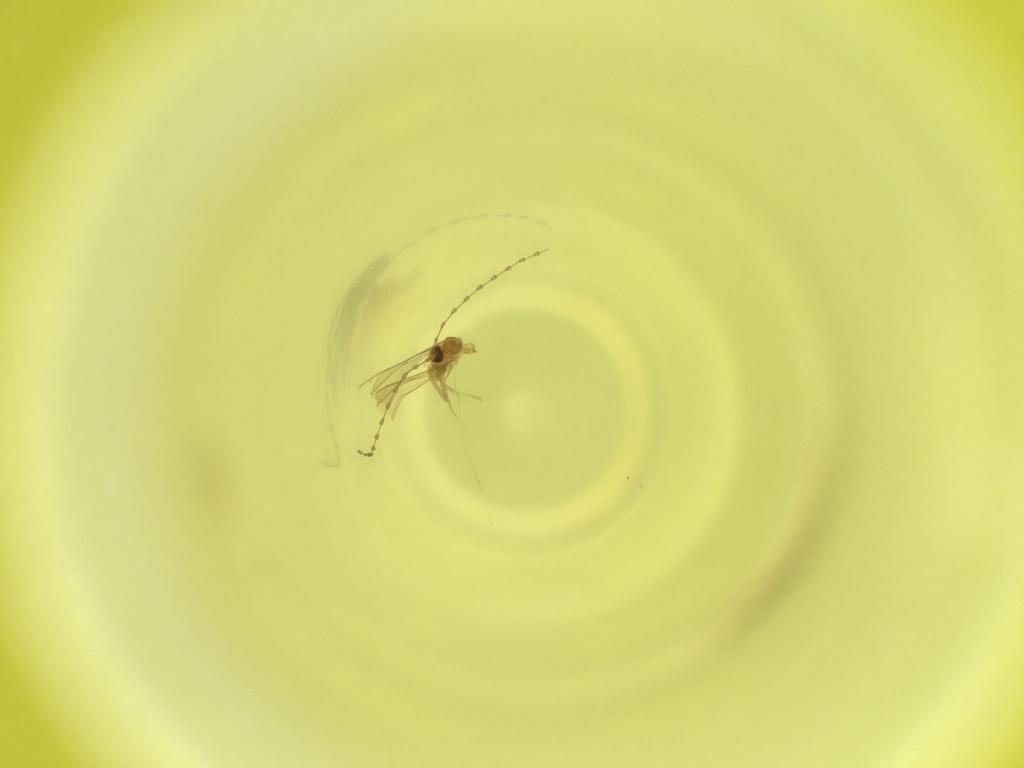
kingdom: Animalia
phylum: Arthropoda
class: Insecta
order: Diptera
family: Cecidomyiidae
